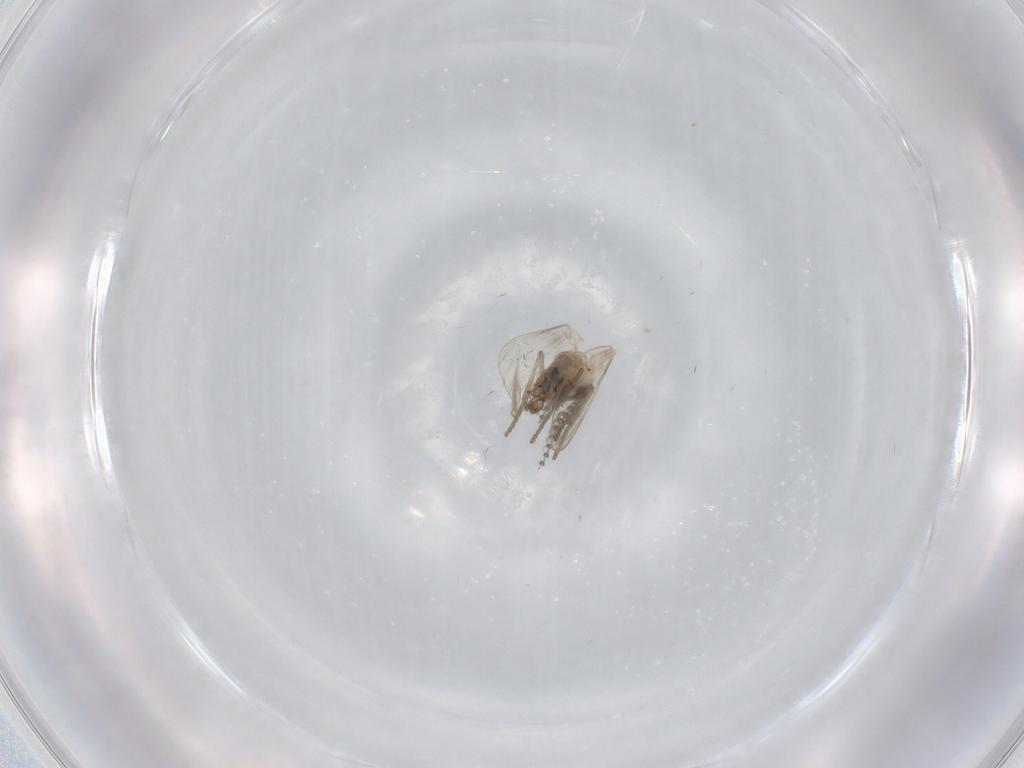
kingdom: Animalia
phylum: Arthropoda
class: Insecta
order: Diptera
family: Psychodidae
